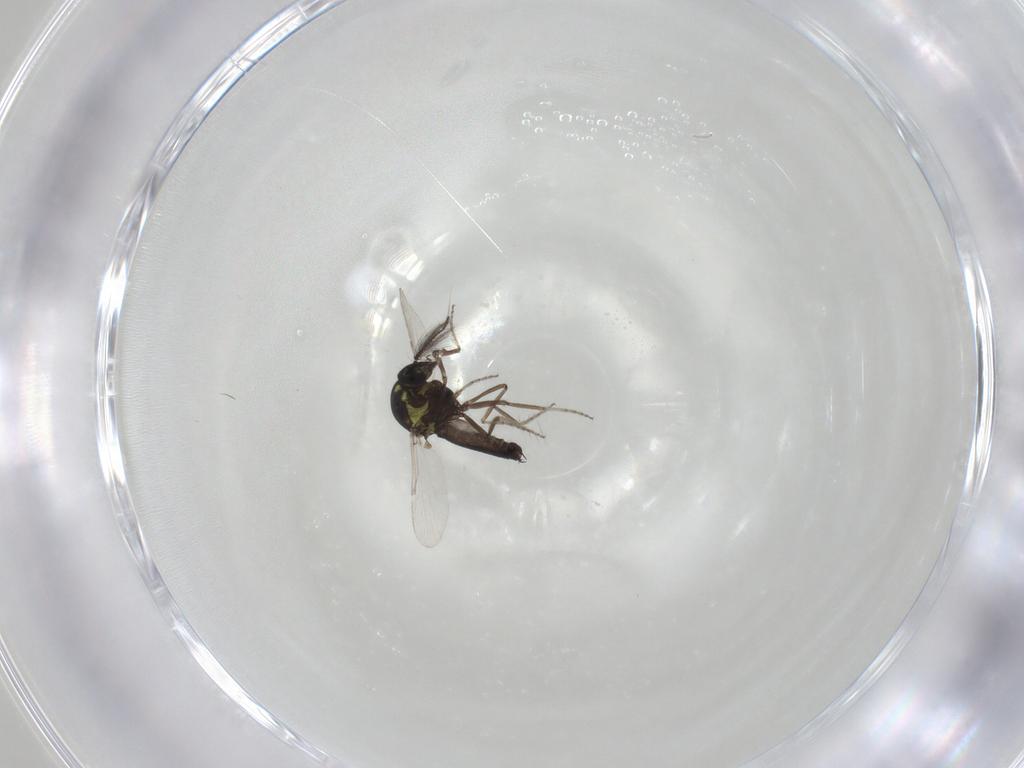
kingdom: Animalia
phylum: Arthropoda
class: Insecta
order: Diptera
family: Ceratopogonidae
